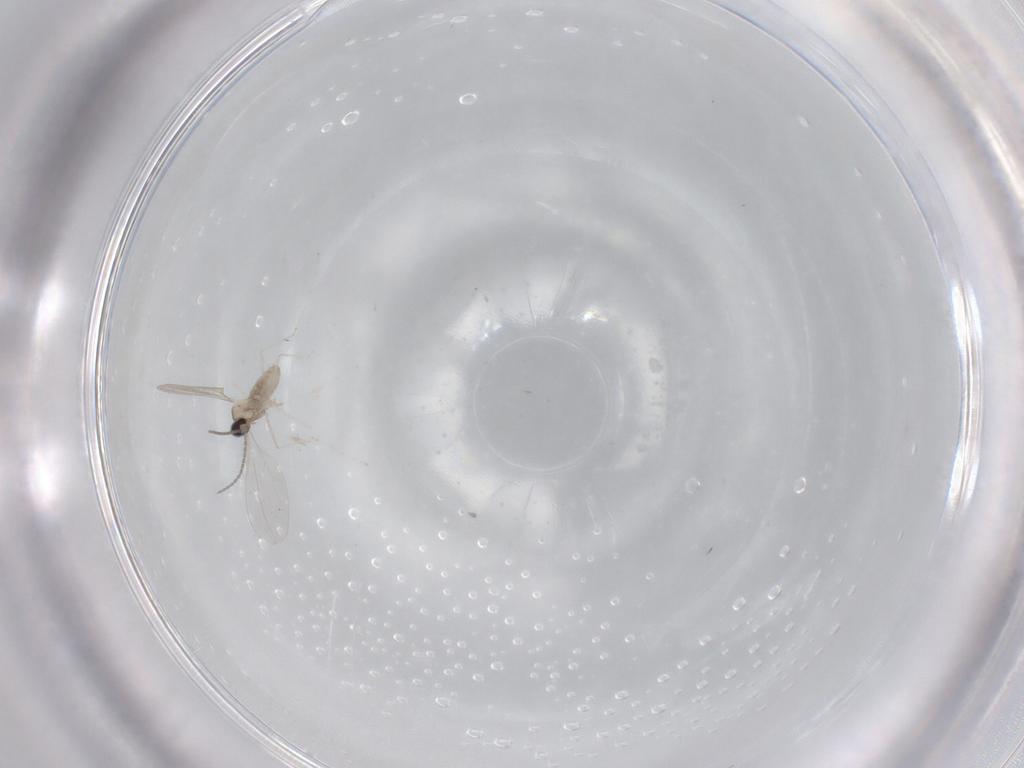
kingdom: Animalia
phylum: Arthropoda
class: Insecta
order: Diptera
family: Cecidomyiidae
